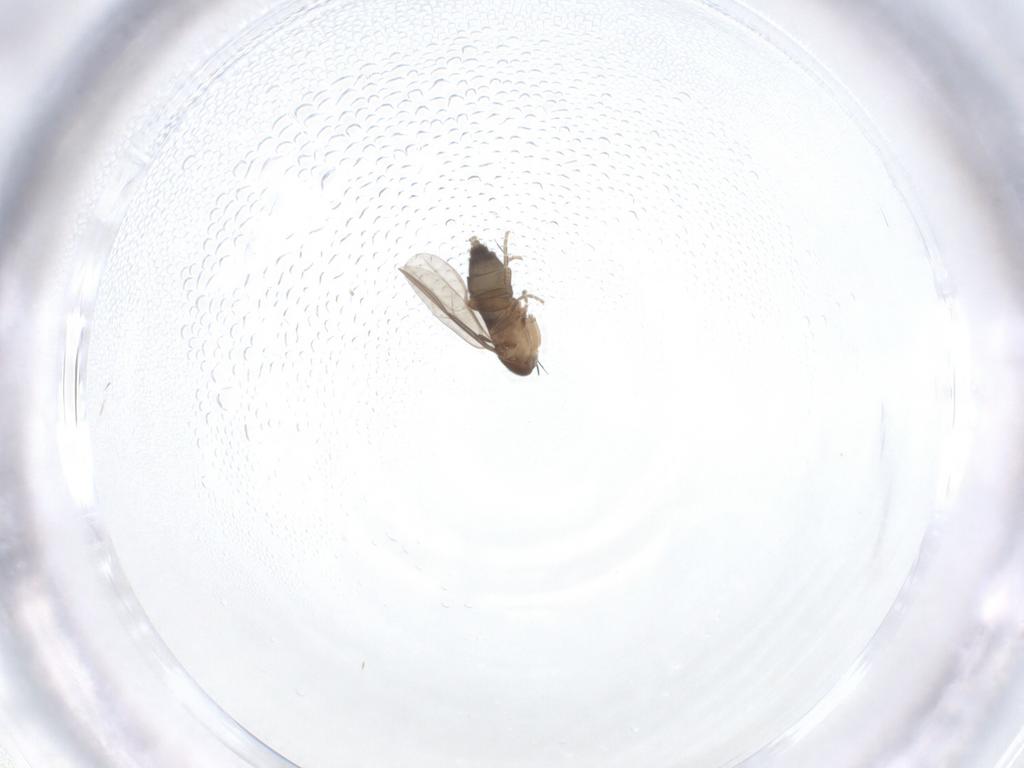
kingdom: Animalia
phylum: Arthropoda
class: Insecta
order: Diptera
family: Phoridae
